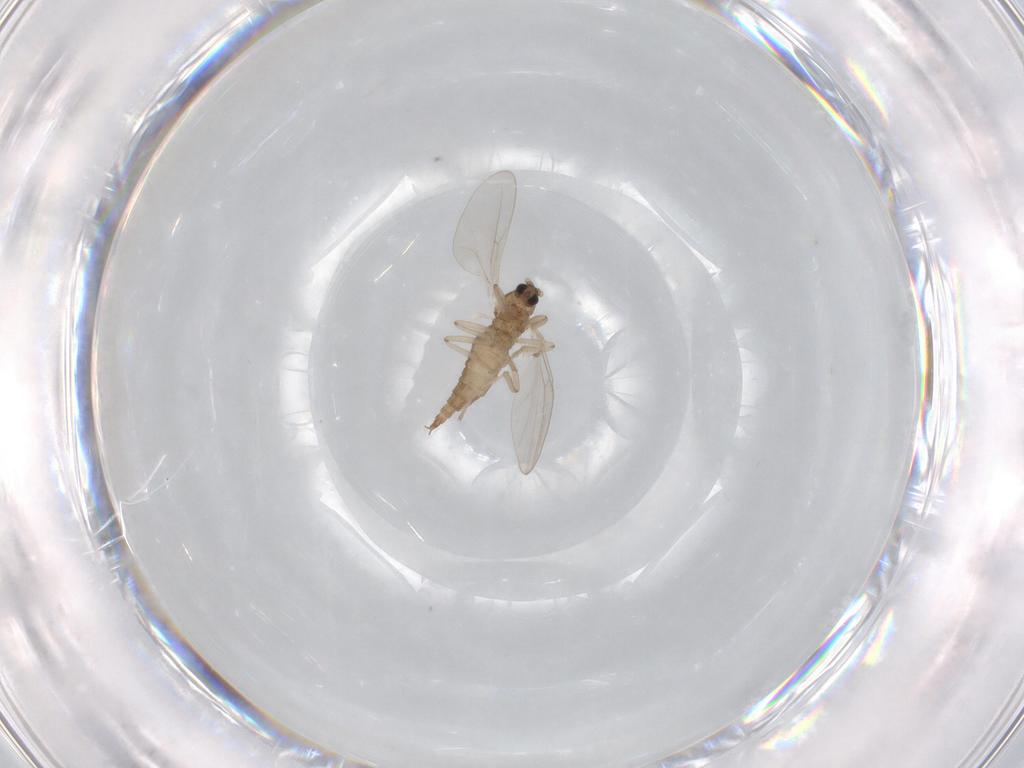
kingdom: Animalia
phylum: Arthropoda
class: Insecta
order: Diptera
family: Cecidomyiidae
